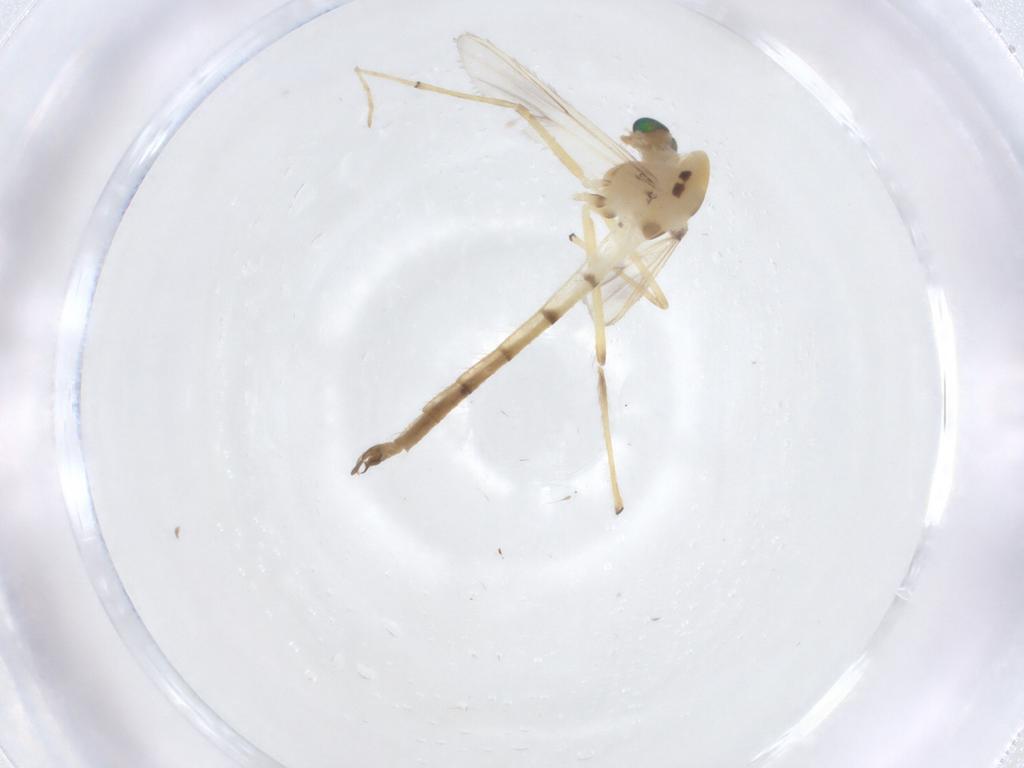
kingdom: Animalia
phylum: Arthropoda
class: Insecta
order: Diptera
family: Chironomidae
